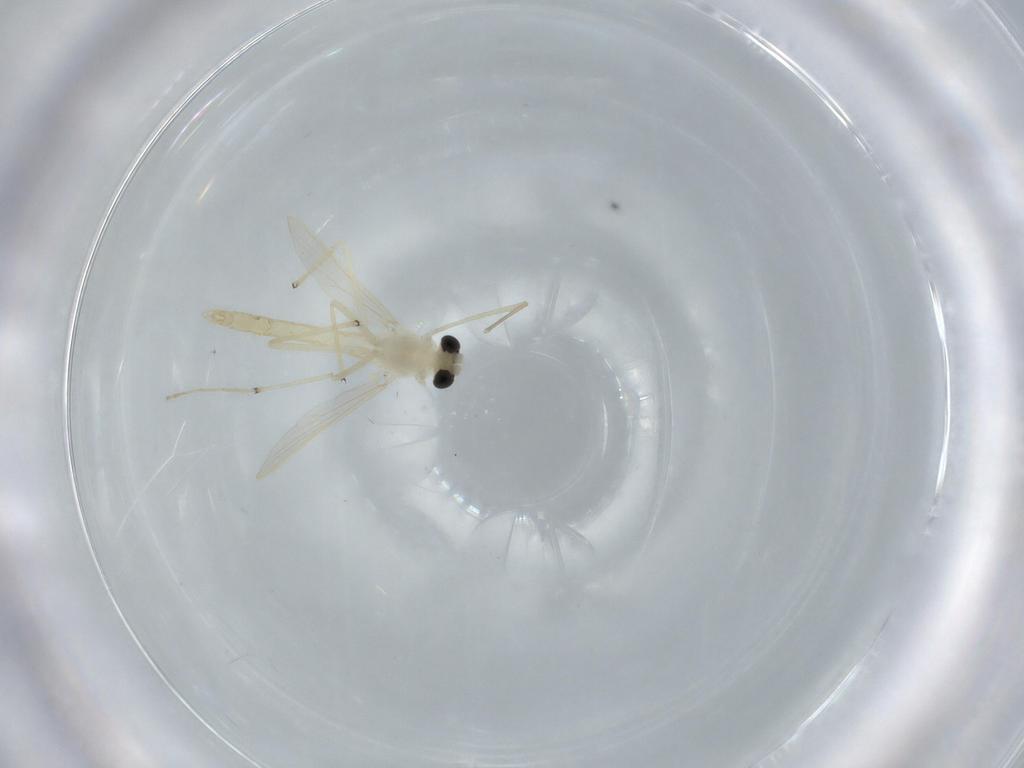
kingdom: Animalia
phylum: Arthropoda
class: Insecta
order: Diptera
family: Chironomidae
